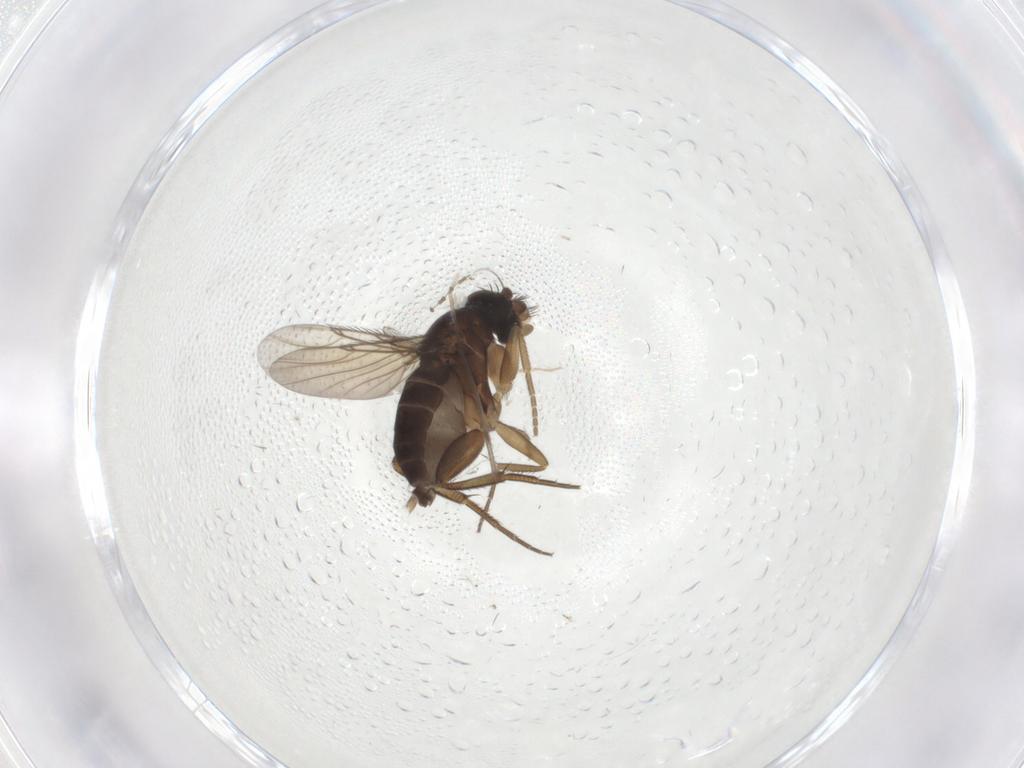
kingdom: Animalia
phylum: Arthropoda
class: Insecta
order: Diptera
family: Phoridae
